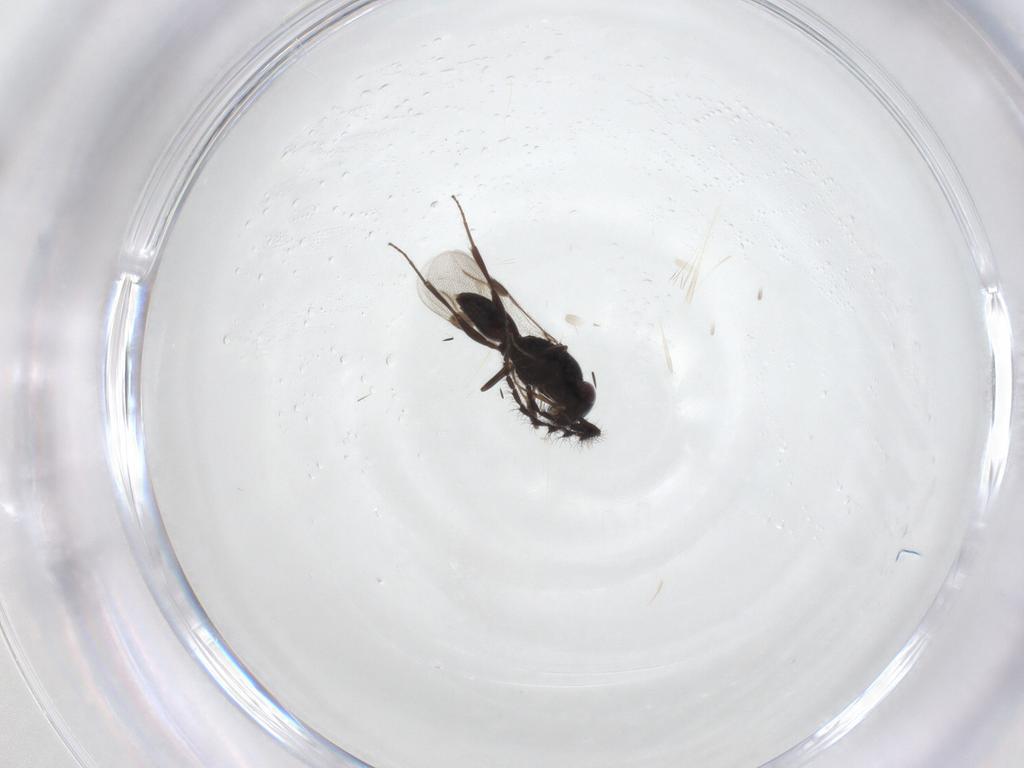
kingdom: Animalia
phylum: Arthropoda
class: Insecta
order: Hymenoptera
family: Megaspilidae
